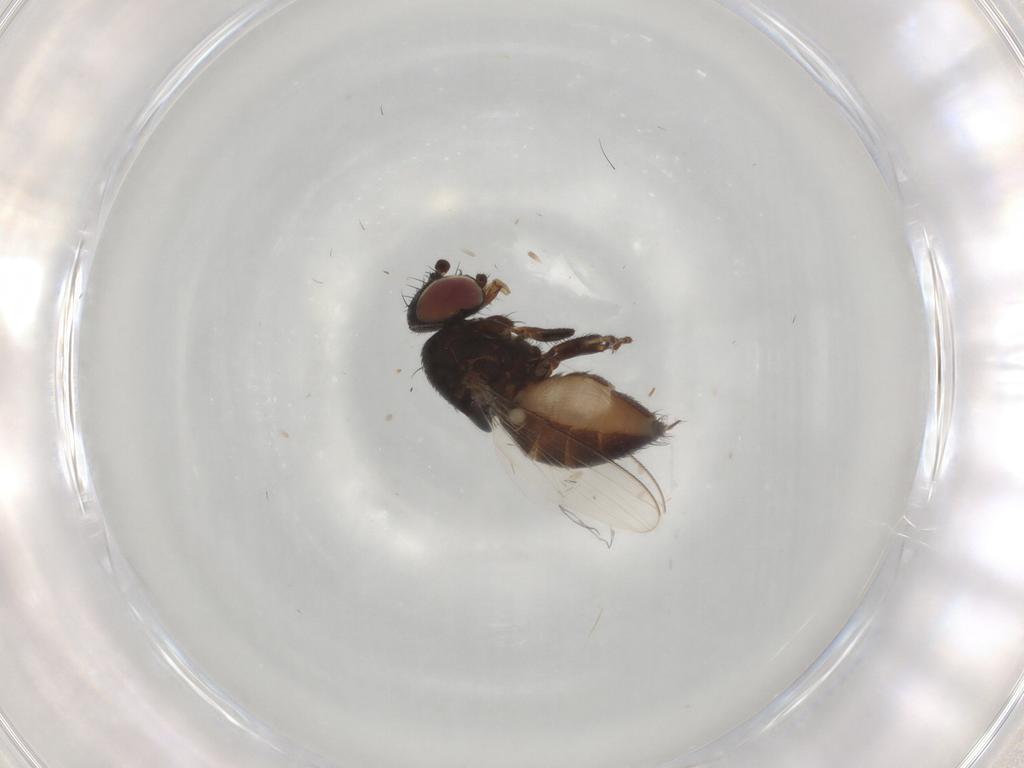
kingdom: Animalia
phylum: Arthropoda
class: Insecta
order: Diptera
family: Milichiidae
